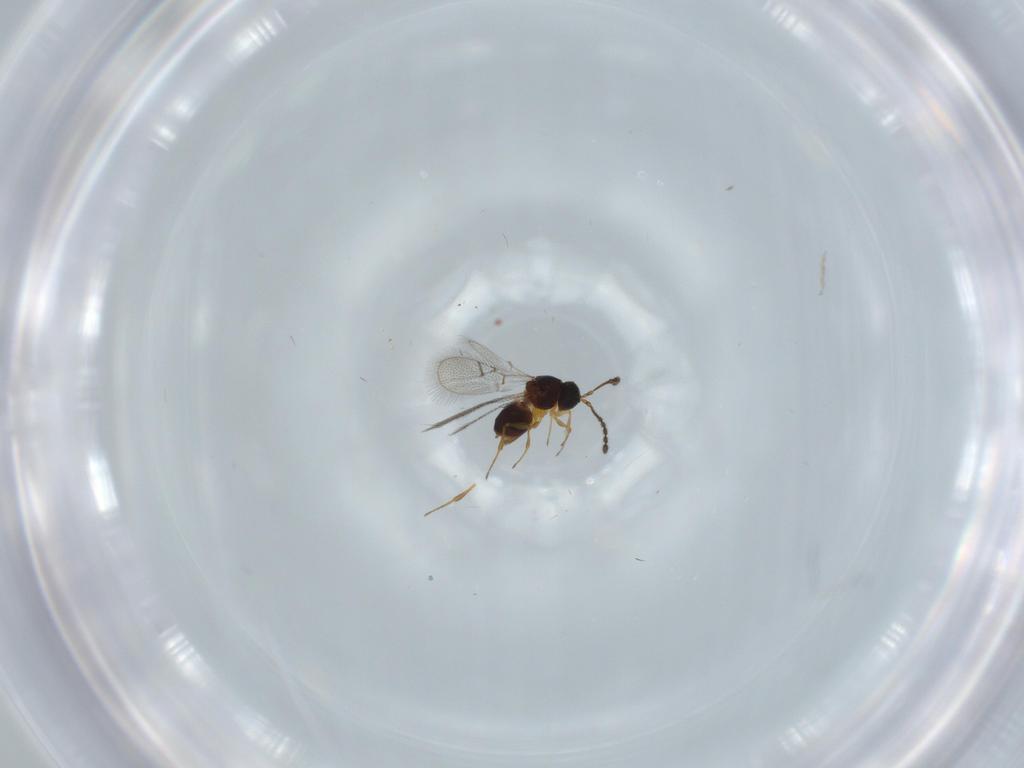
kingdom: Animalia
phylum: Arthropoda
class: Insecta
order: Hymenoptera
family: Figitidae
